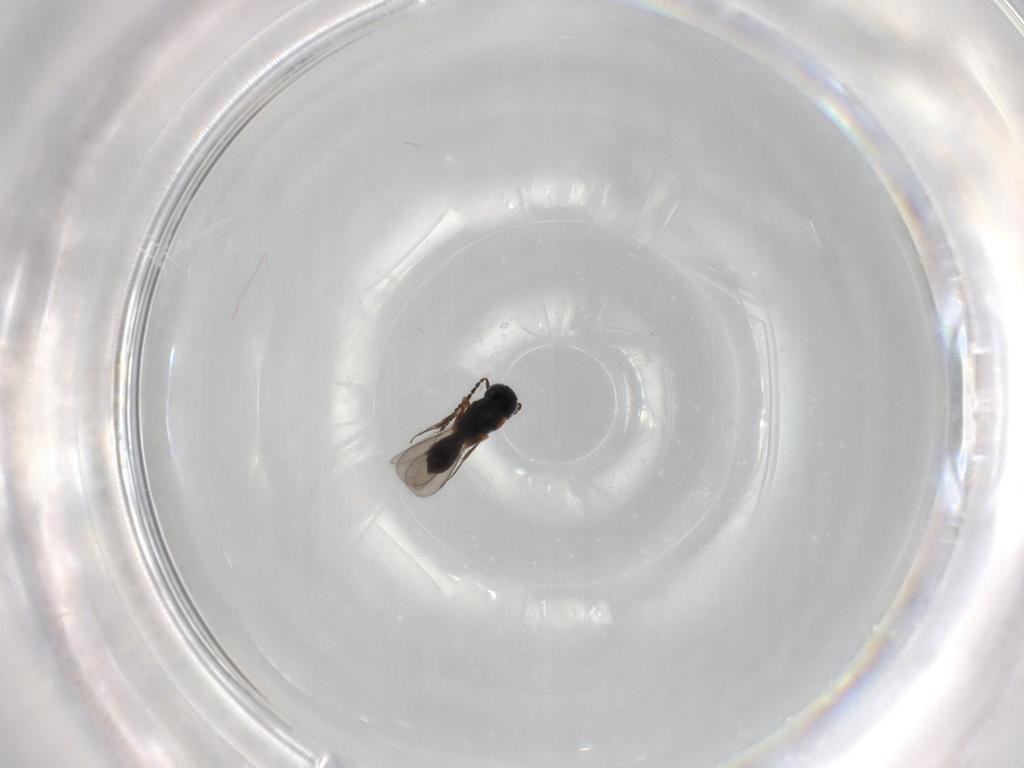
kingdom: Animalia
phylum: Arthropoda
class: Insecta
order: Hymenoptera
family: Scelionidae
